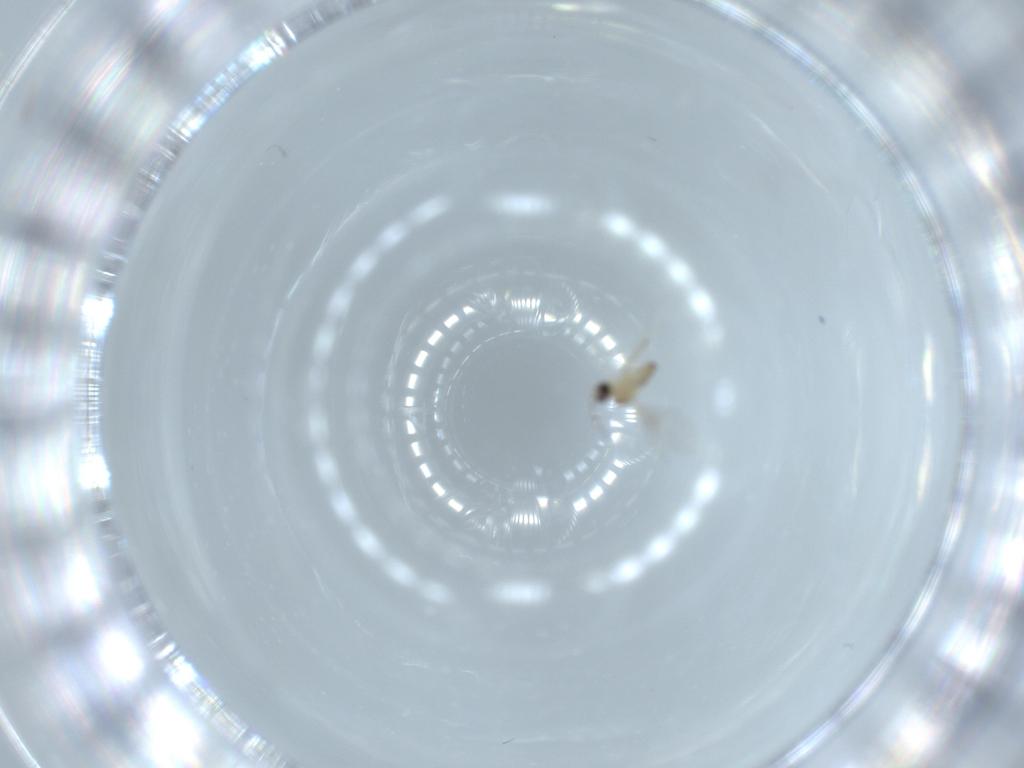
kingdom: Animalia
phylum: Arthropoda
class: Insecta
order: Diptera
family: Cecidomyiidae
